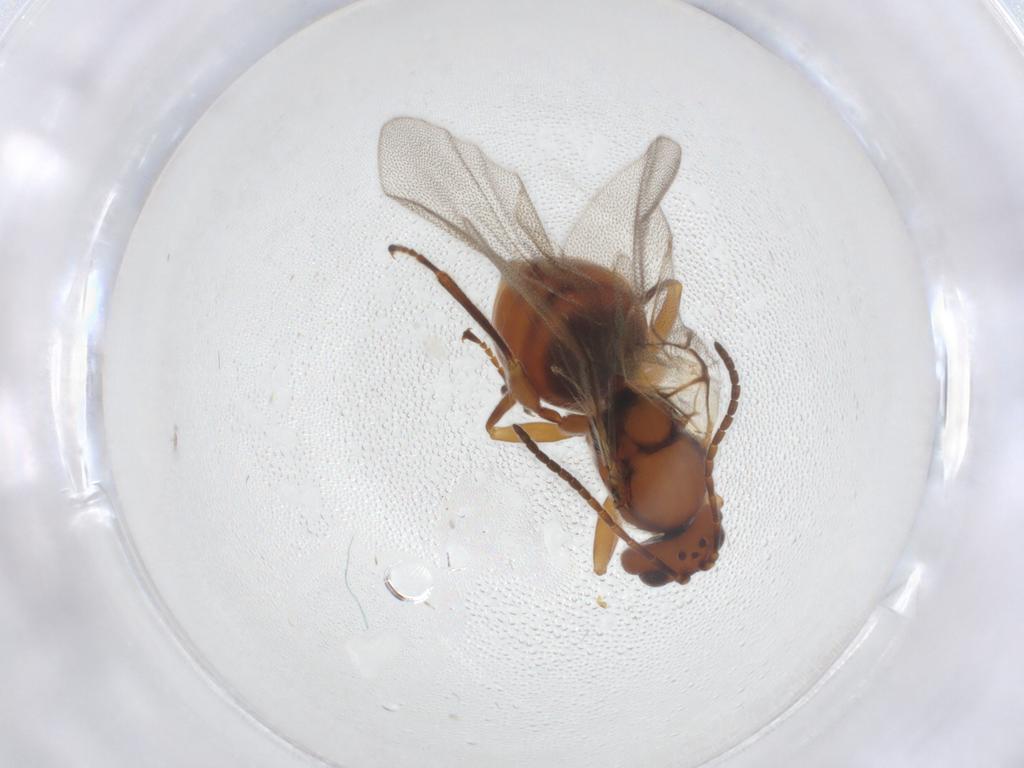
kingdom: Animalia
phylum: Arthropoda
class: Insecta
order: Hymenoptera
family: Cynipidae
